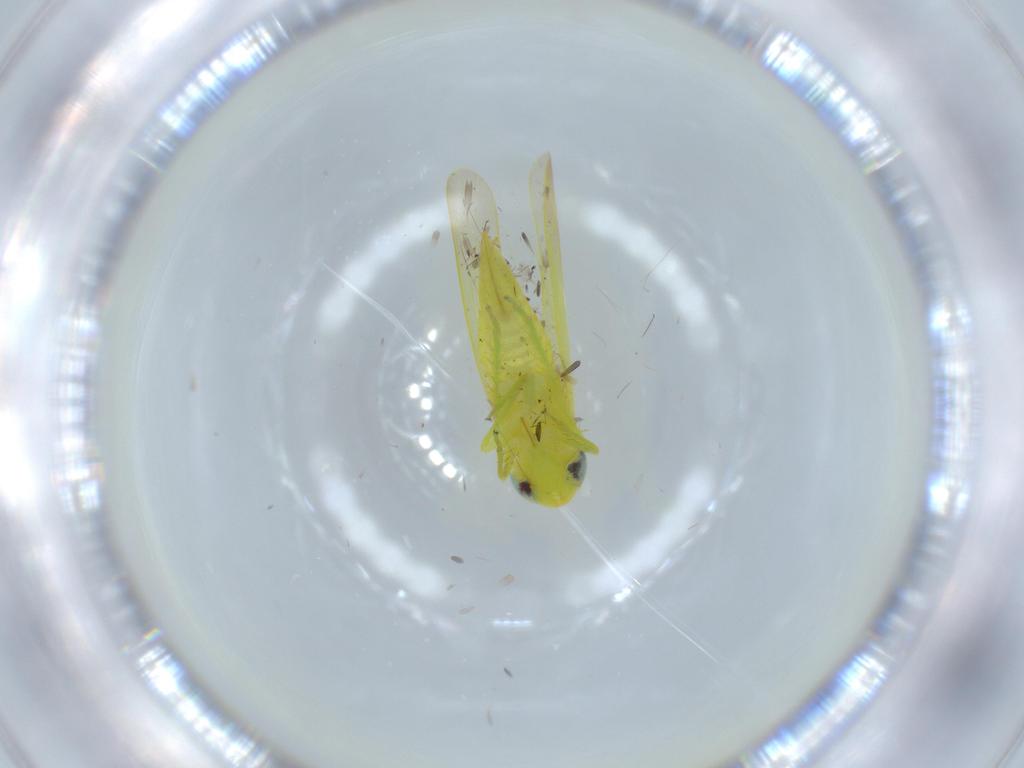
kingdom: Animalia
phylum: Arthropoda
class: Insecta
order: Hemiptera
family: Cicadellidae
